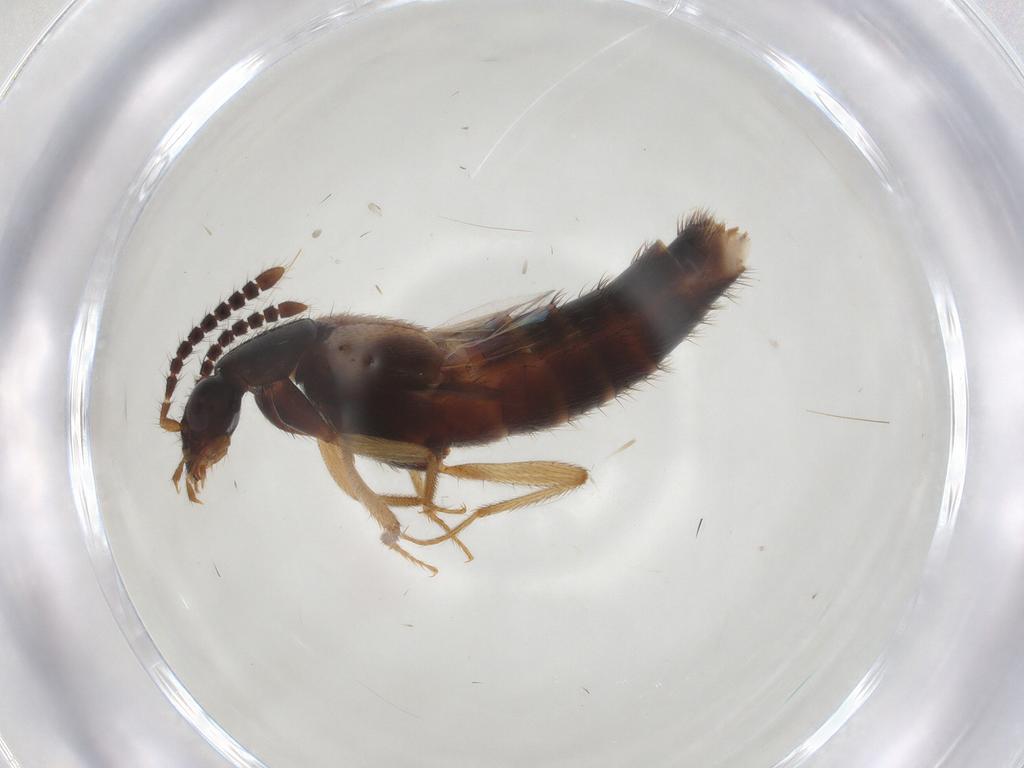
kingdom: Animalia
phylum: Arthropoda
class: Insecta
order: Coleoptera
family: Staphylinidae
